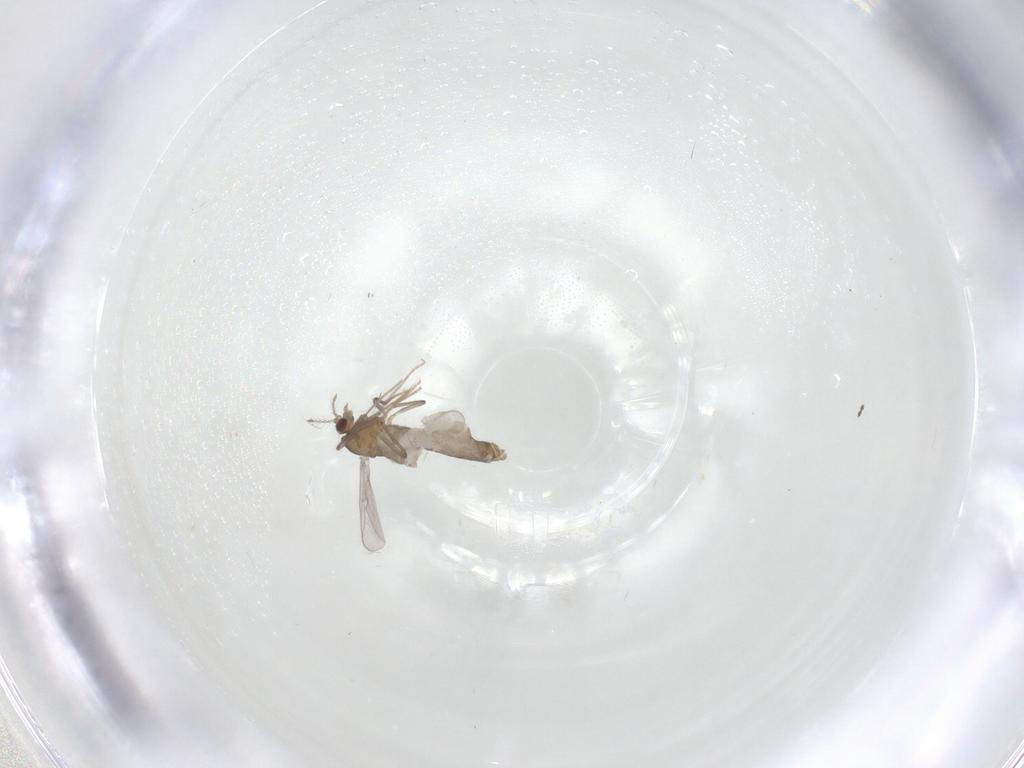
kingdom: Animalia
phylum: Arthropoda
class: Insecta
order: Diptera
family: Chironomidae
